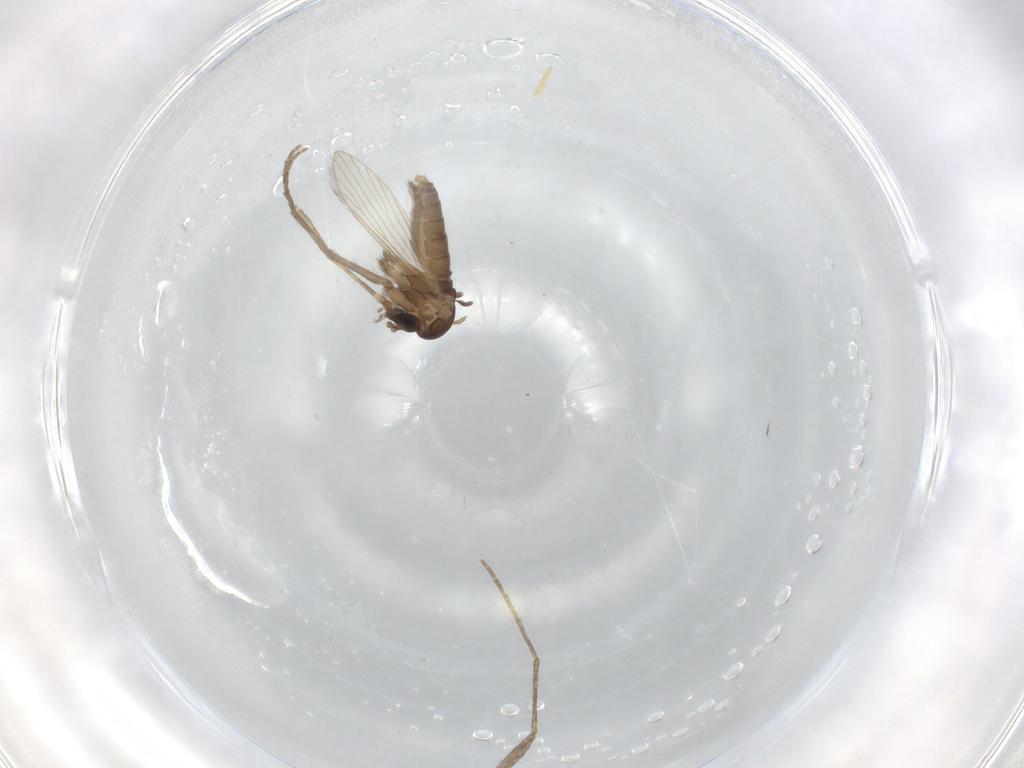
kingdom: Animalia
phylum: Arthropoda
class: Insecta
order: Diptera
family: Psychodidae
